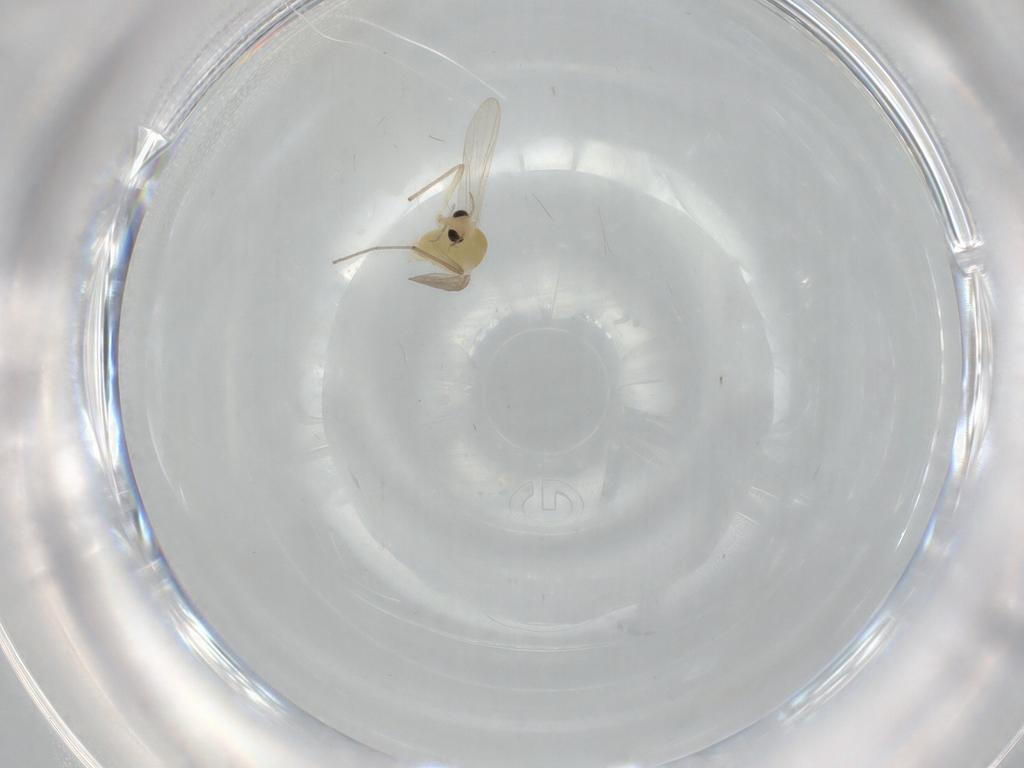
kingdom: Animalia
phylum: Arthropoda
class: Insecta
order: Diptera
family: Chironomidae
